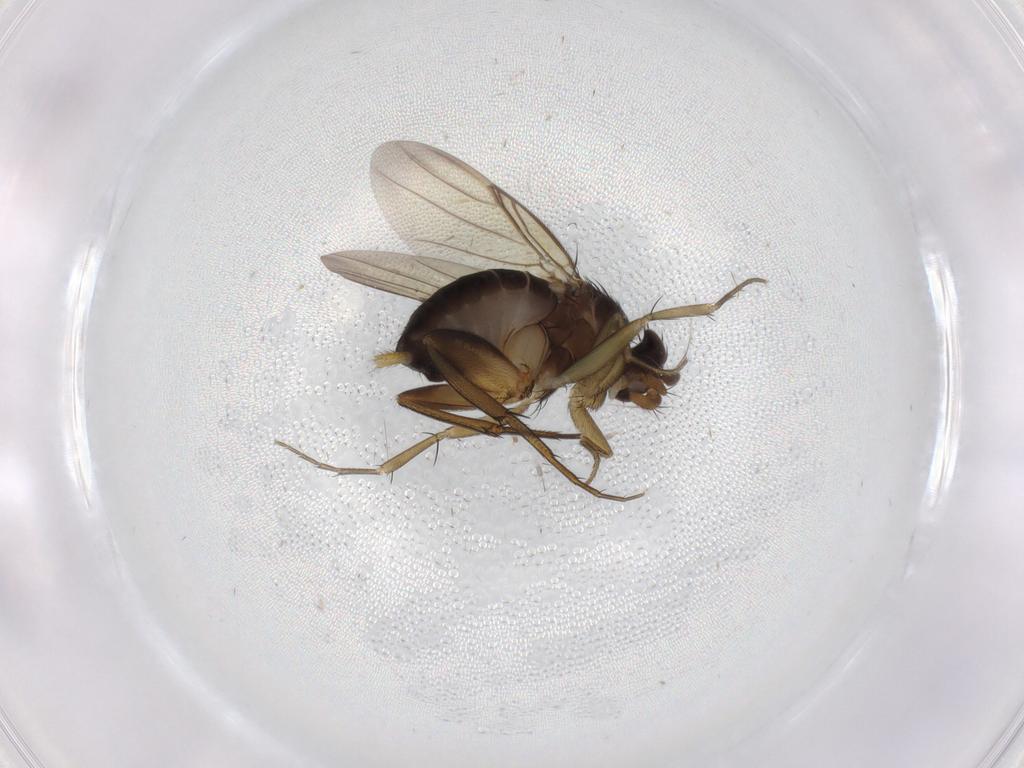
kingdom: Animalia
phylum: Arthropoda
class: Insecta
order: Diptera
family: Phoridae
